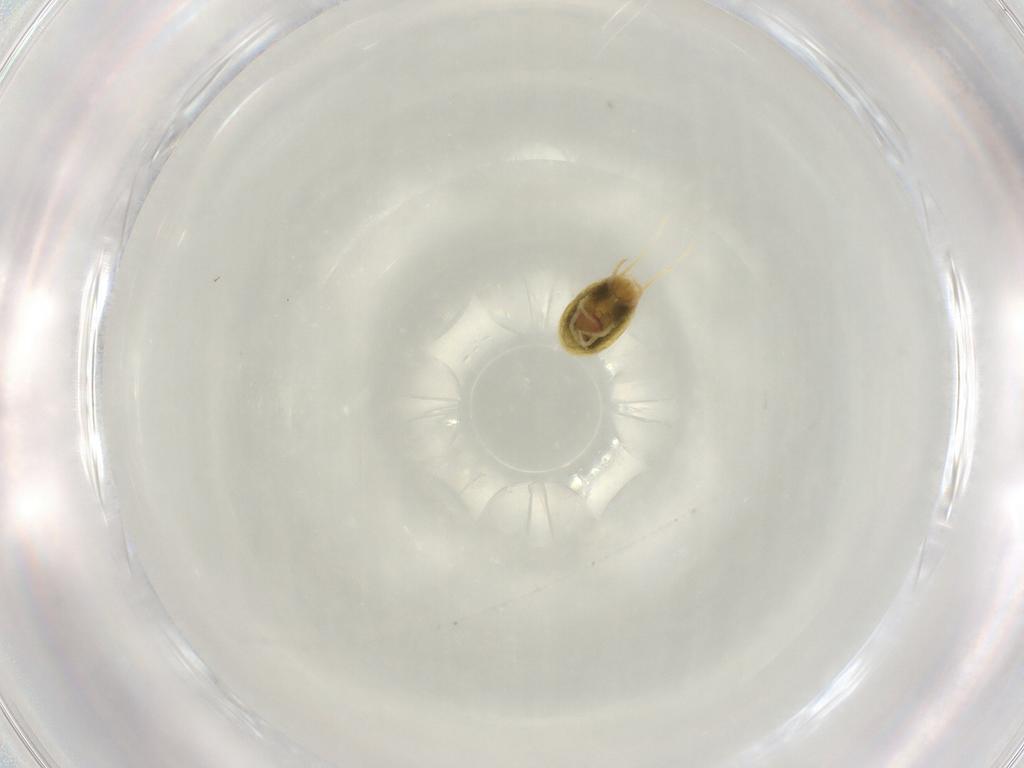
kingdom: Animalia
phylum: Arthropoda
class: Arachnida
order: Trombidiformes
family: Tetranychidae
